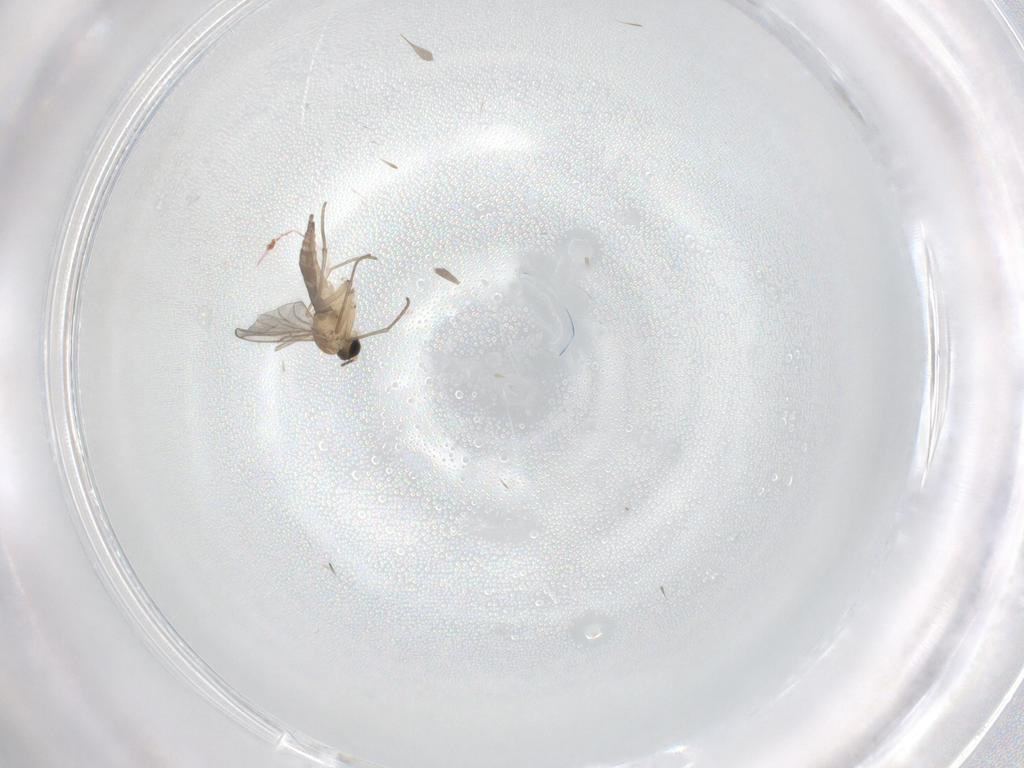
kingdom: Animalia
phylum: Arthropoda
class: Insecta
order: Diptera
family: Sciaridae
